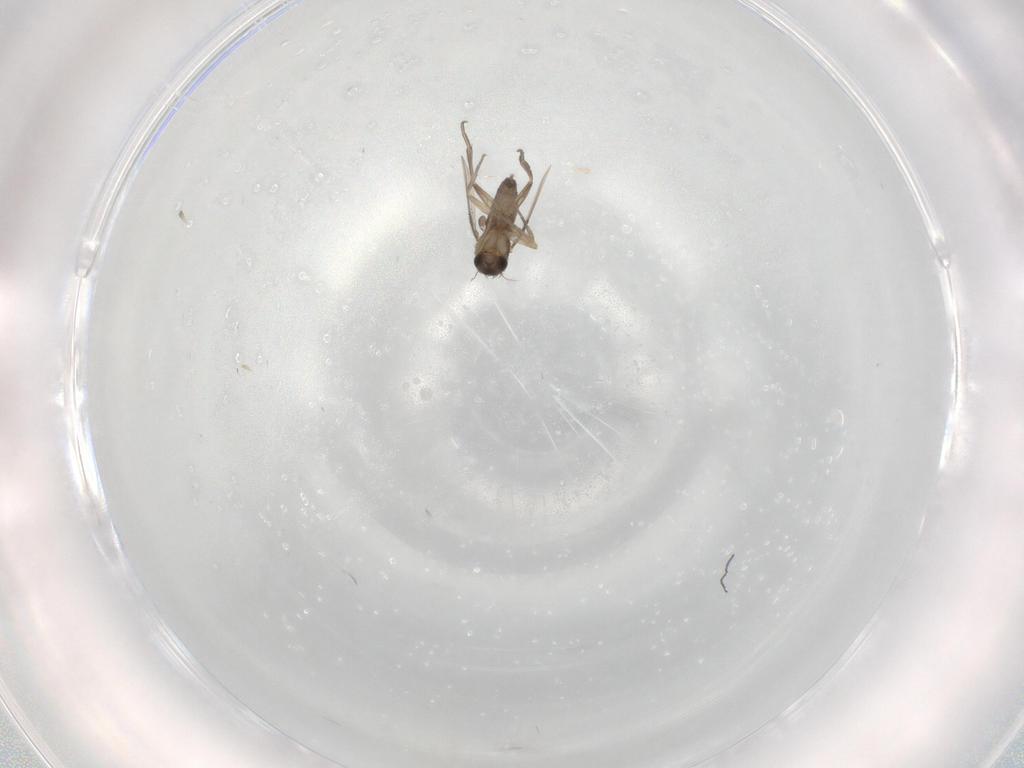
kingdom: Animalia
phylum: Arthropoda
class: Insecta
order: Diptera
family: Phoridae
